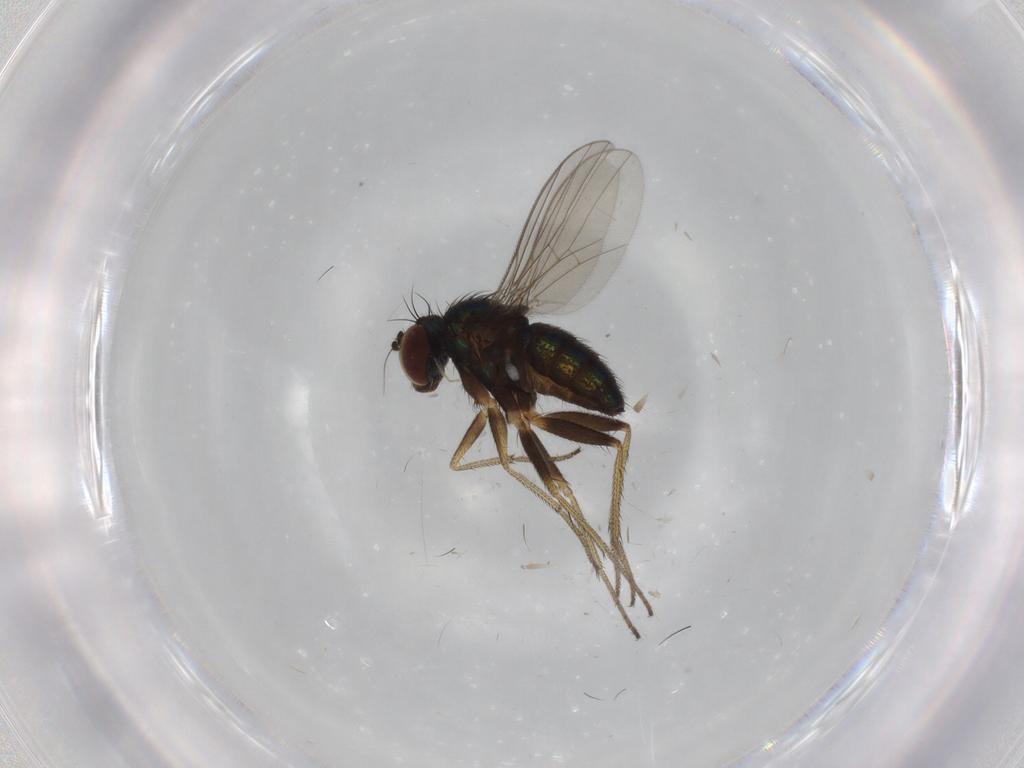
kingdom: Animalia
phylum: Arthropoda
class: Insecta
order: Diptera
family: Dolichopodidae
